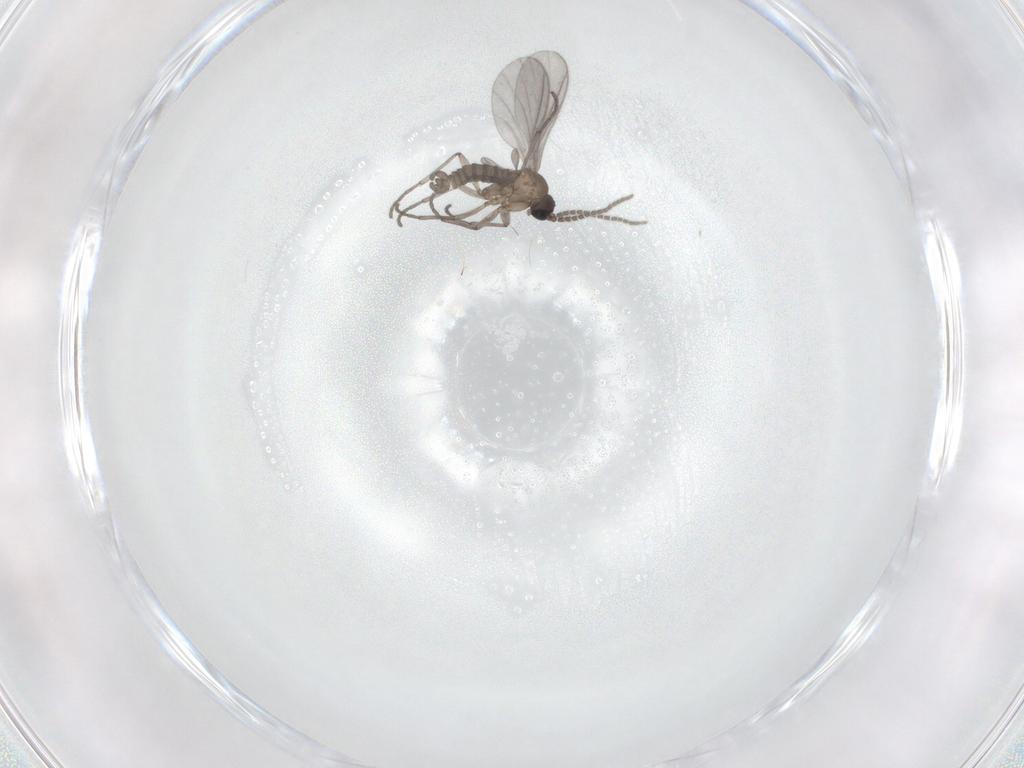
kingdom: Animalia
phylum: Arthropoda
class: Insecta
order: Diptera
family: Sciaridae
